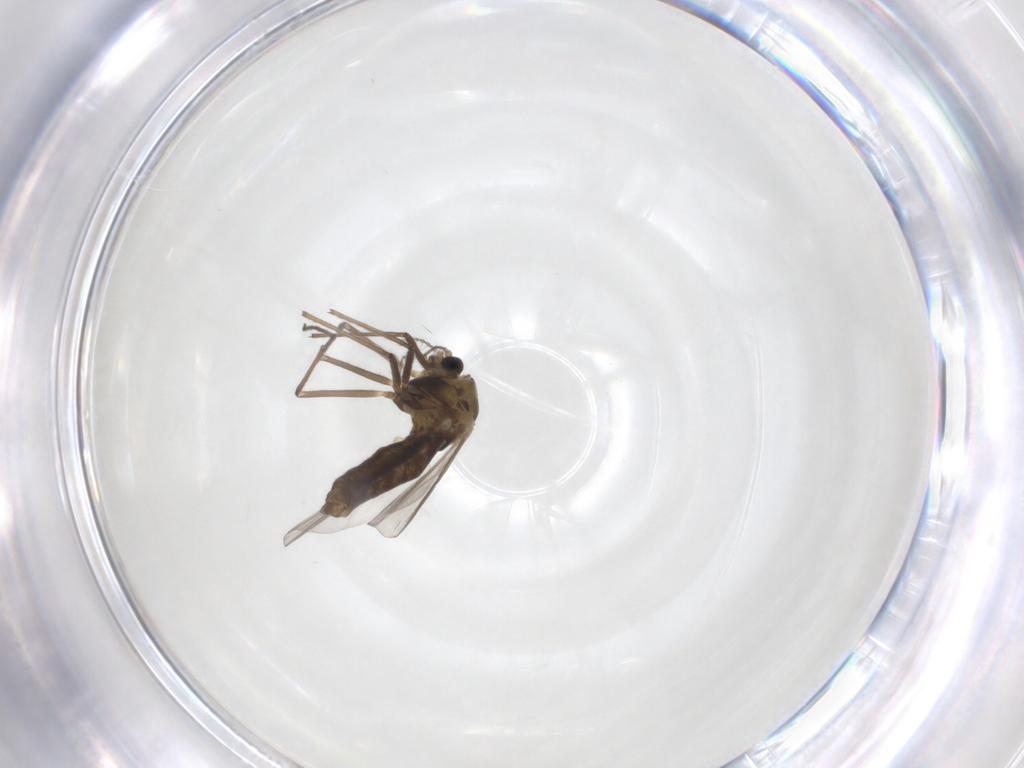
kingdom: Animalia
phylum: Arthropoda
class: Insecta
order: Diptera
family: Chironomidae
